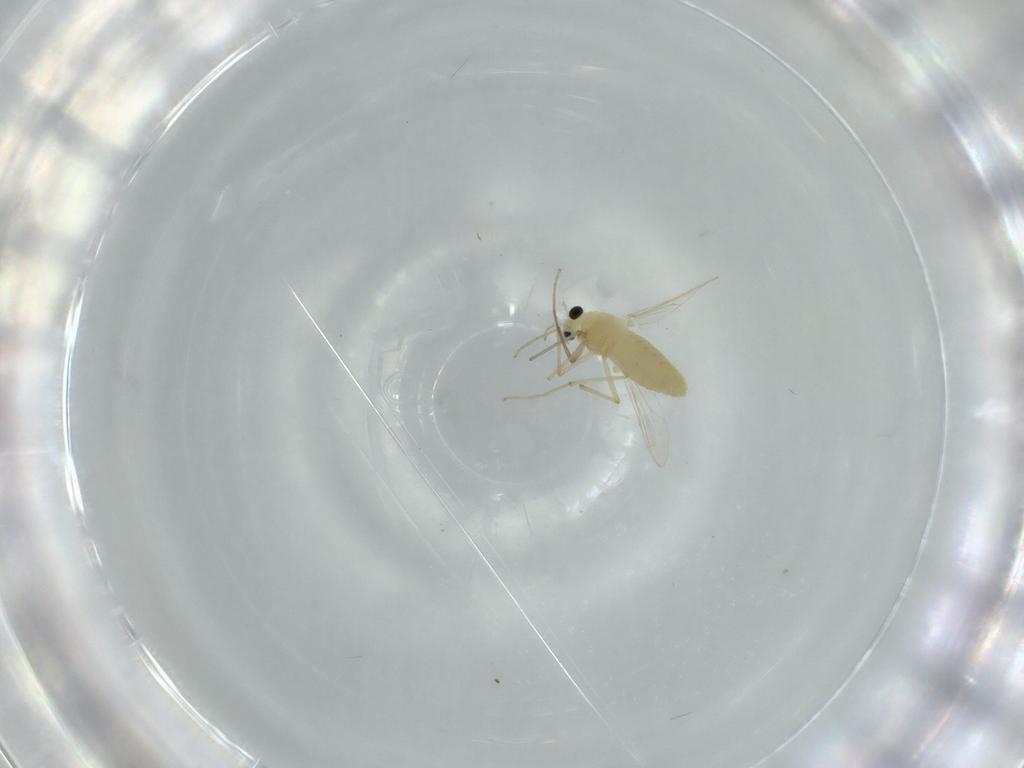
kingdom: Animalia
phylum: Arthropoda
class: Insecta
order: Diptera
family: Chironomidae
